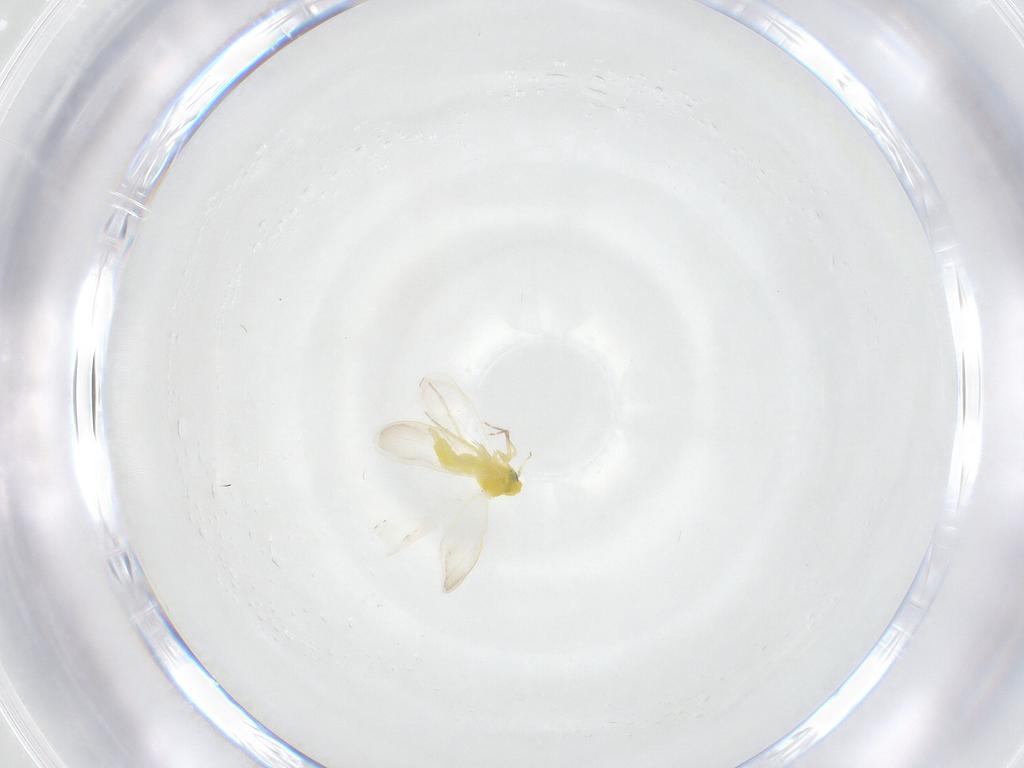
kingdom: Animalia
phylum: Arthropoda
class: Insecta
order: Hemiptera
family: Aleyrodidae
